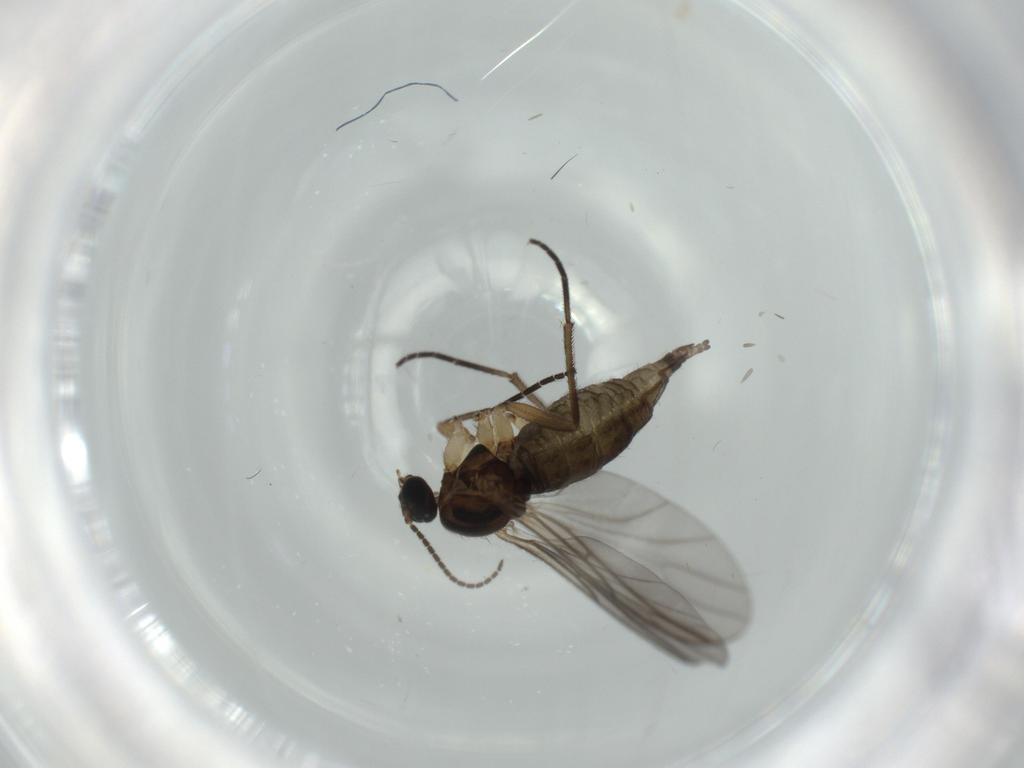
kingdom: Animalia
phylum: Arthropoda
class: Insecta
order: Diptera
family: Sciaridae
